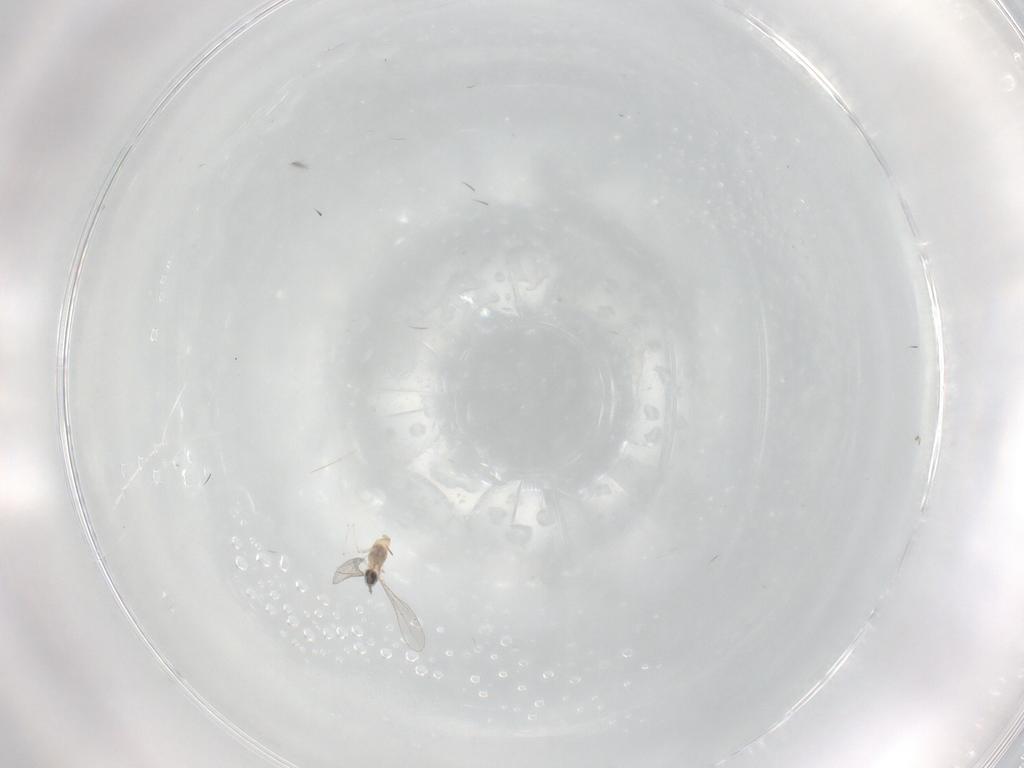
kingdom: Animalia
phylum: Arthropoda
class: Insecta
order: Diptera
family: Cecidomyiidae
